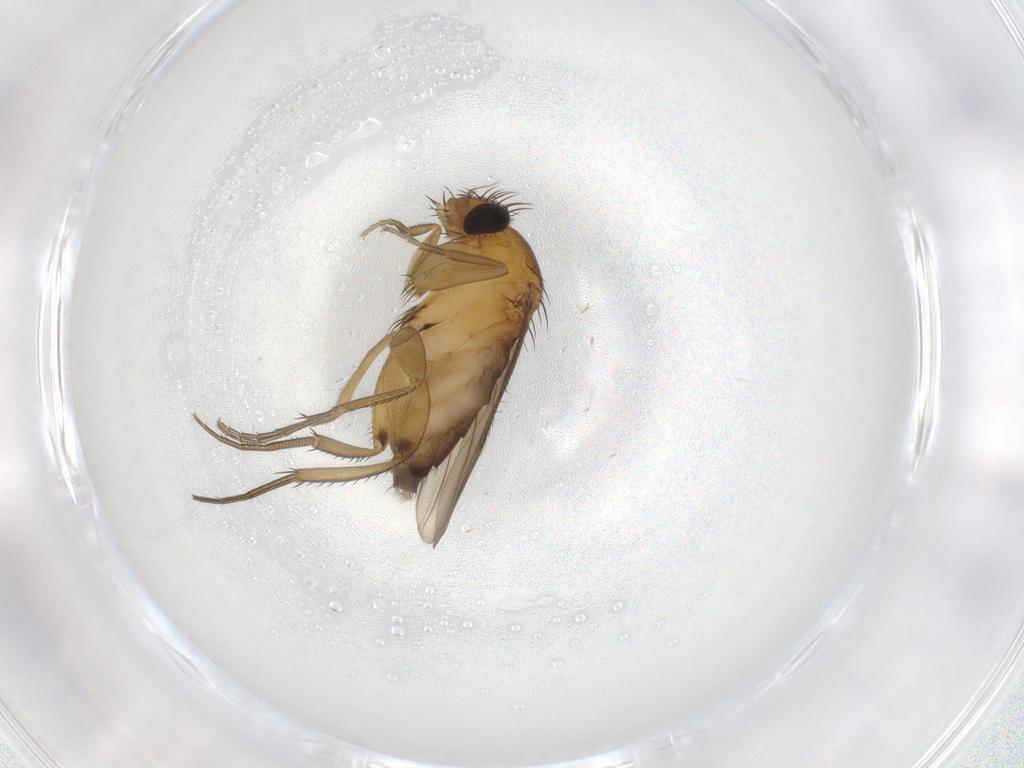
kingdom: Animalia
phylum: Arthropoda
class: Insecta
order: Diptera
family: Phoridae
